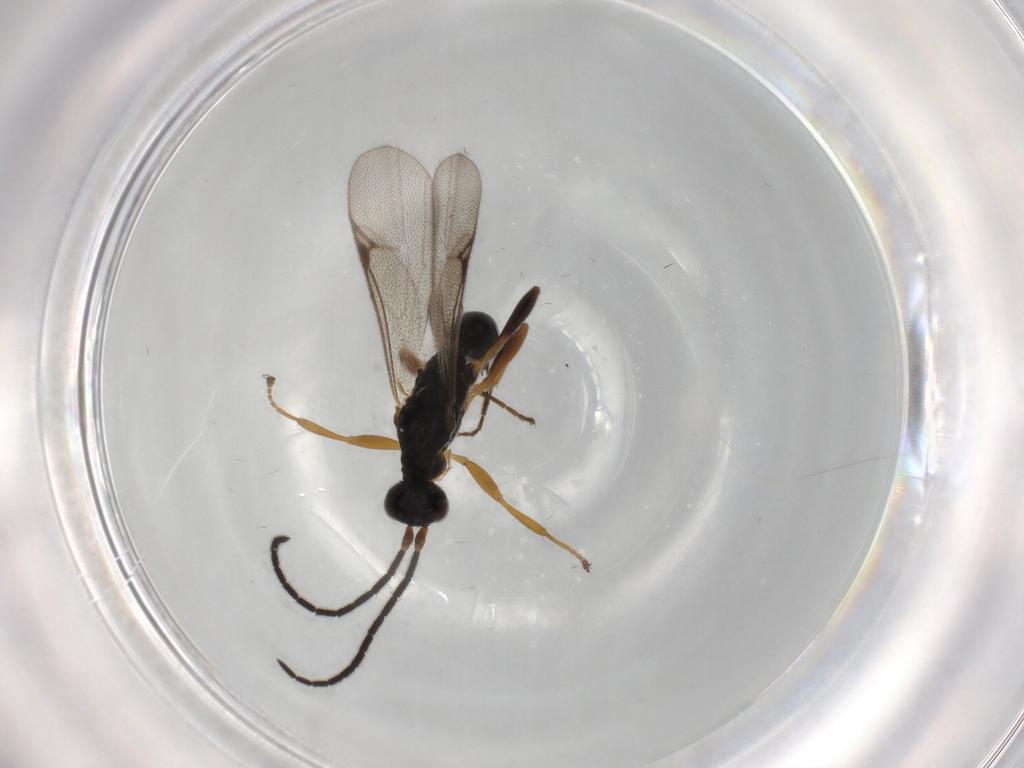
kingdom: Animalia
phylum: Arthropoda
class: Insecta
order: Hymenoptera
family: Proctotrupidae
